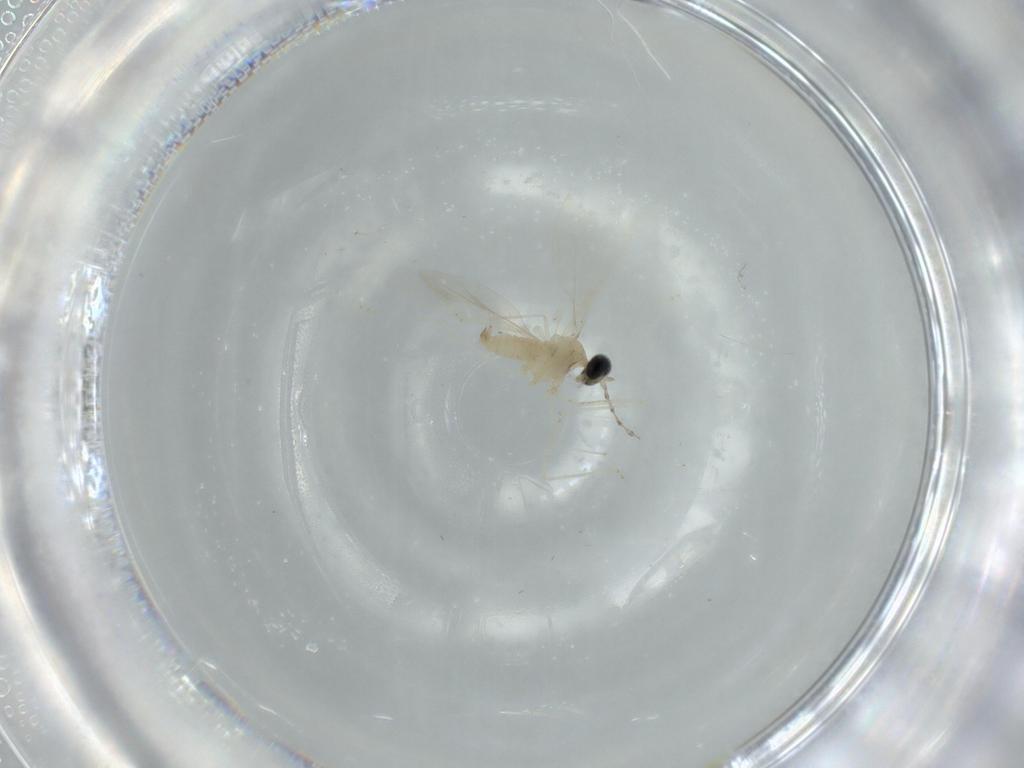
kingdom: Animalia
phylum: Arthropoda
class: Insecta
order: Diptera
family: Cecidomyiidae
